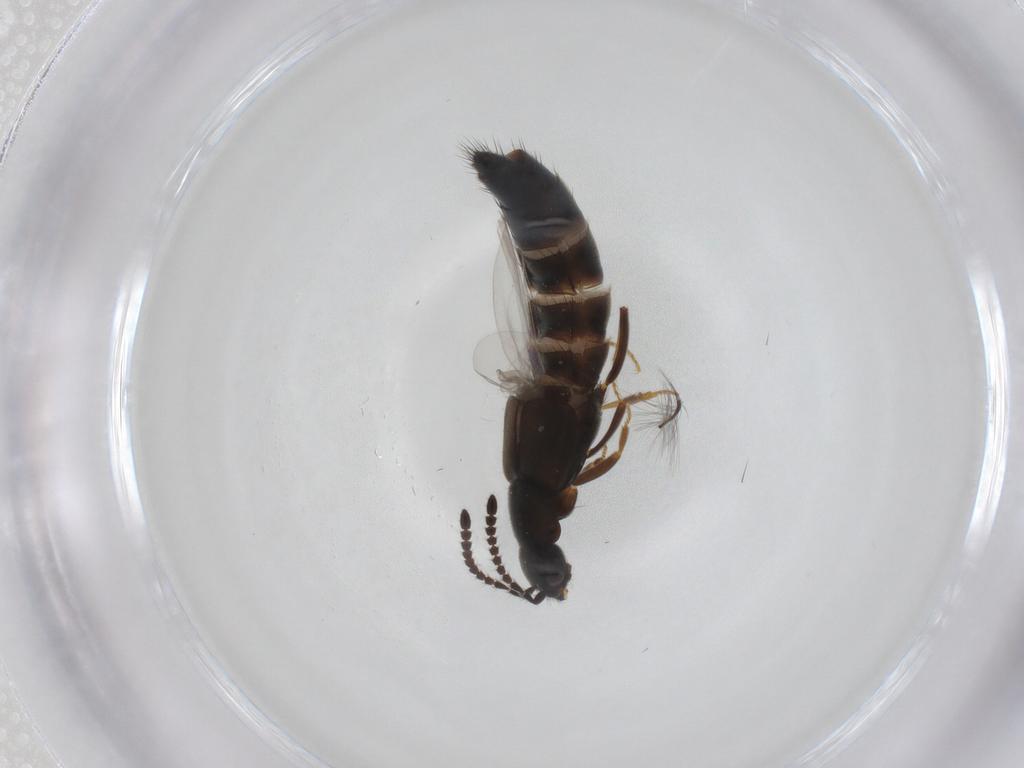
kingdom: Animalia
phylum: Arthropoda
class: Insecta
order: Coleoptera
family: Staphylinidae
